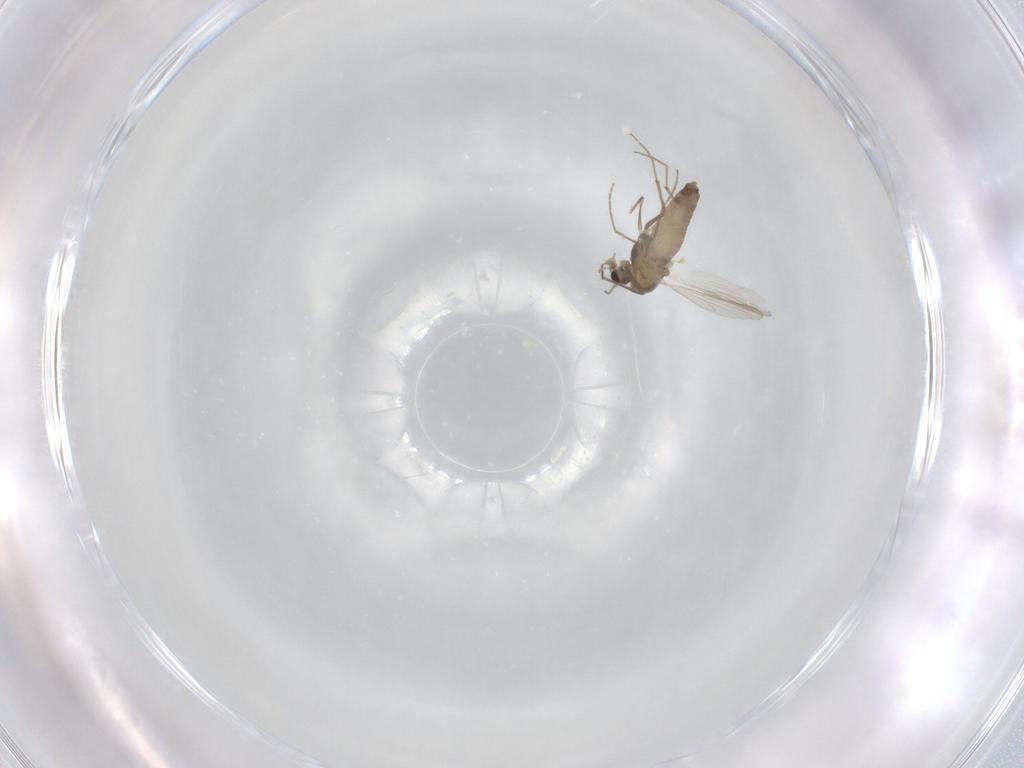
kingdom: Animalia
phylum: Arthropoda
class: Insecta
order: Diptera
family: Chironomidae
